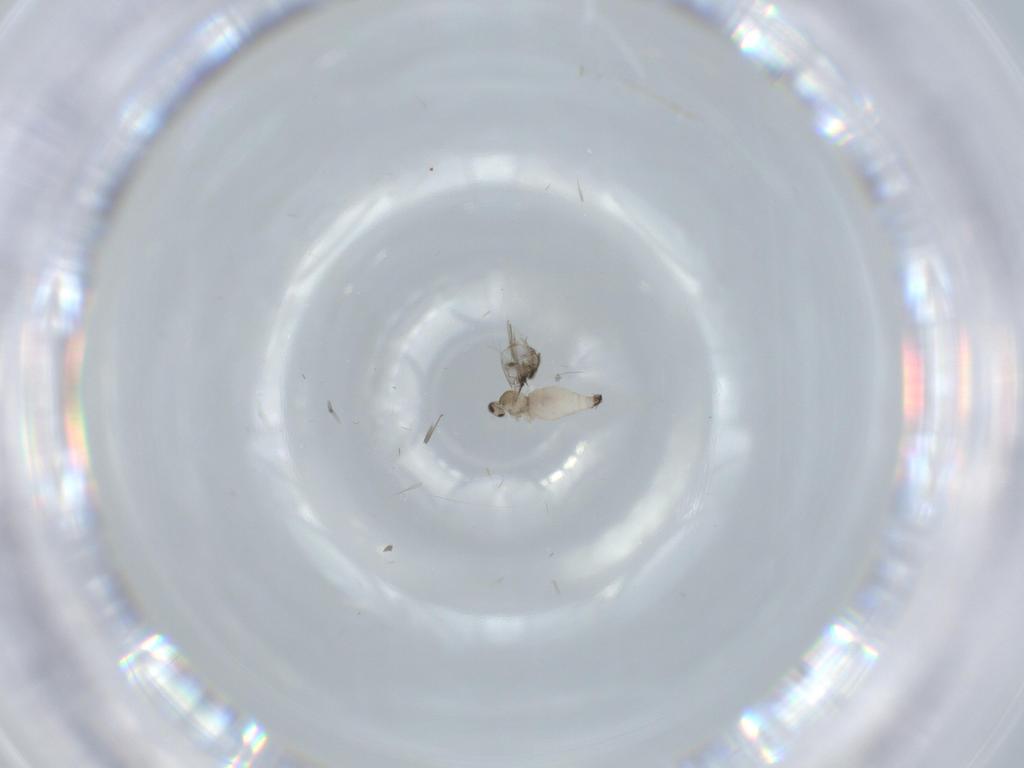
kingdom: Animalia
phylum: Arthropoda
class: Insecta
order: Diptera
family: Cecidomyiidae
